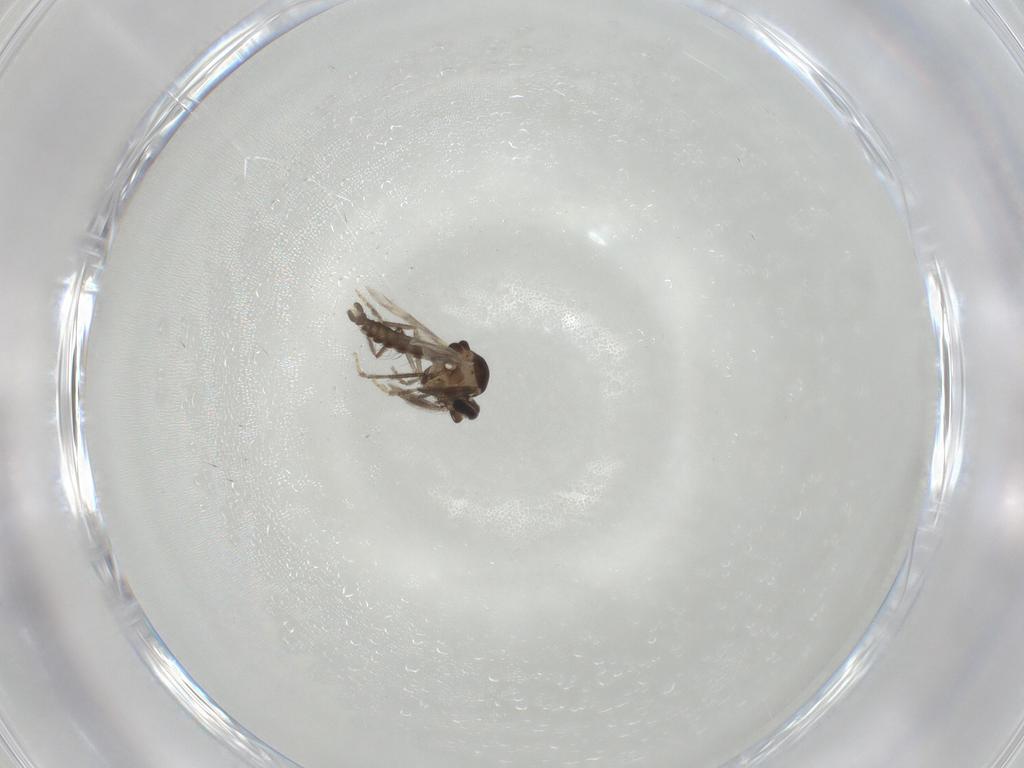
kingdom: Animalia
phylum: Arthropoda
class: Insecta
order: Diptera
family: Ceratopogonidae
